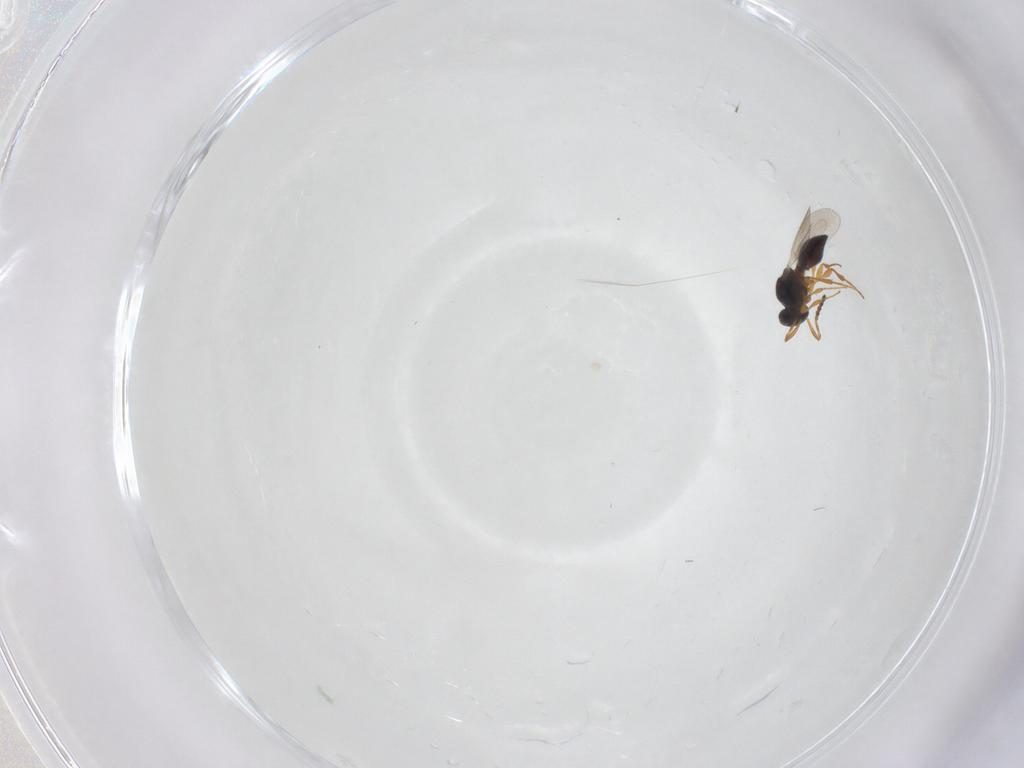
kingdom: Animalia
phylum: Arthropoda
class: Insecta
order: Hymenoptera
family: Platygastridae
